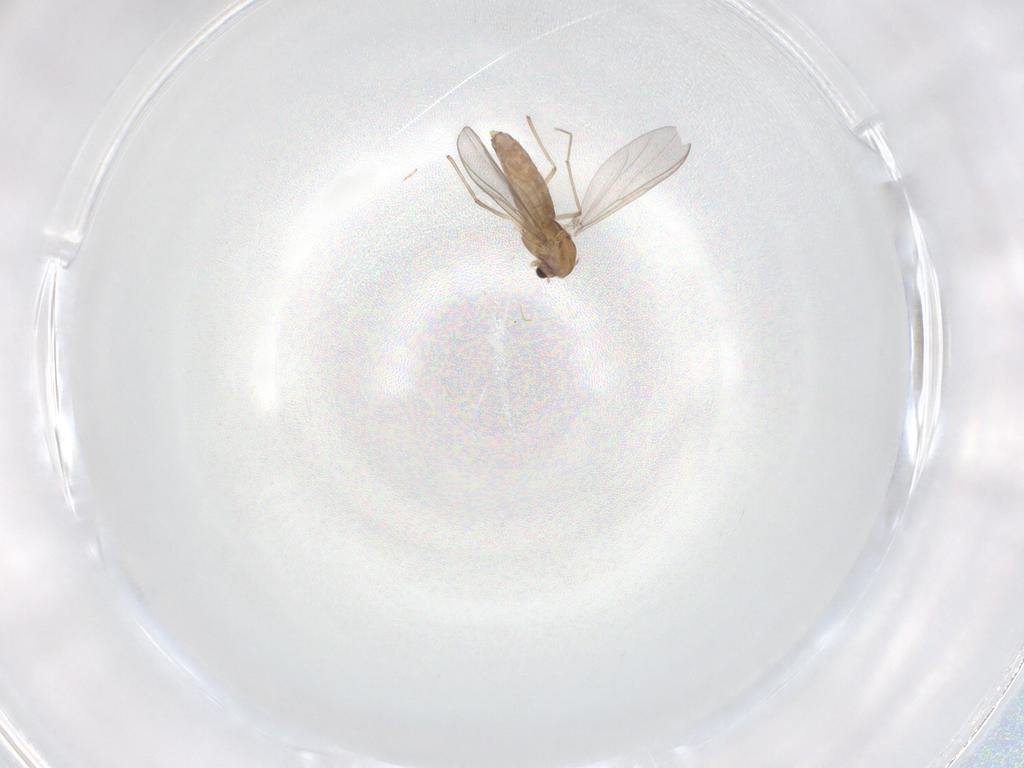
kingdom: Animalia
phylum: Arthropoda
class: Insecta
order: Diptera
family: Chironomidae
